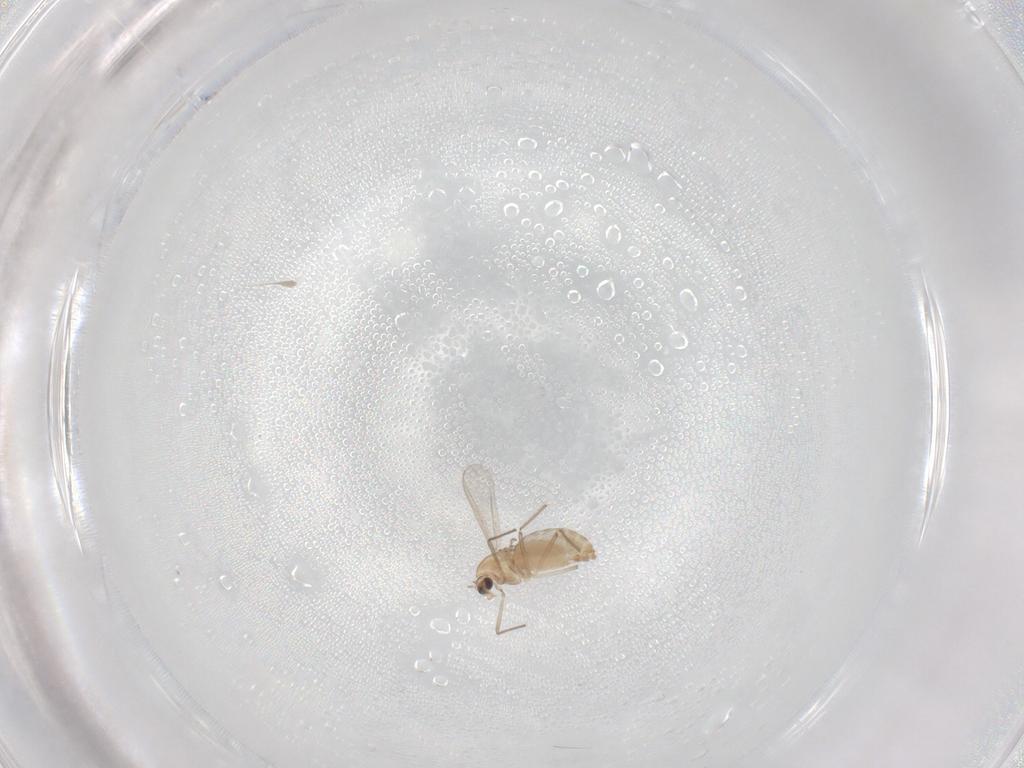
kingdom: Animalia
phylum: Arthropoda
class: Insecta
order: Diptera
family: Chironomidae
